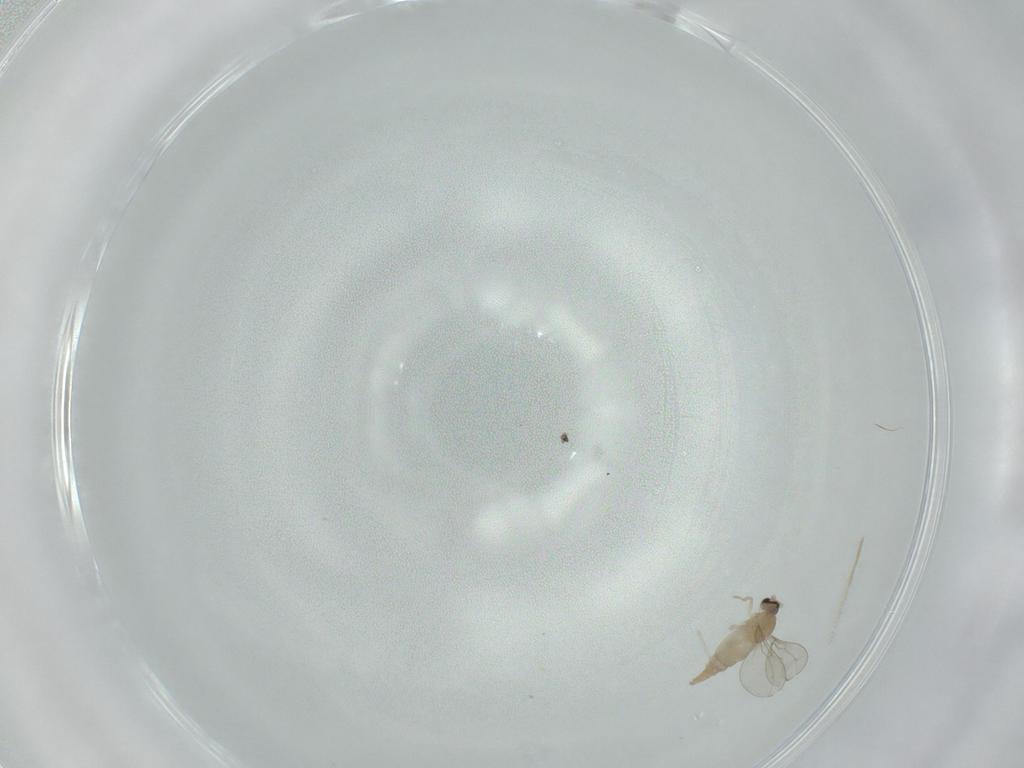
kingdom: Animalia
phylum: Arthropoda
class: Insecta
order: Diptera
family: Cecidomyiidae
